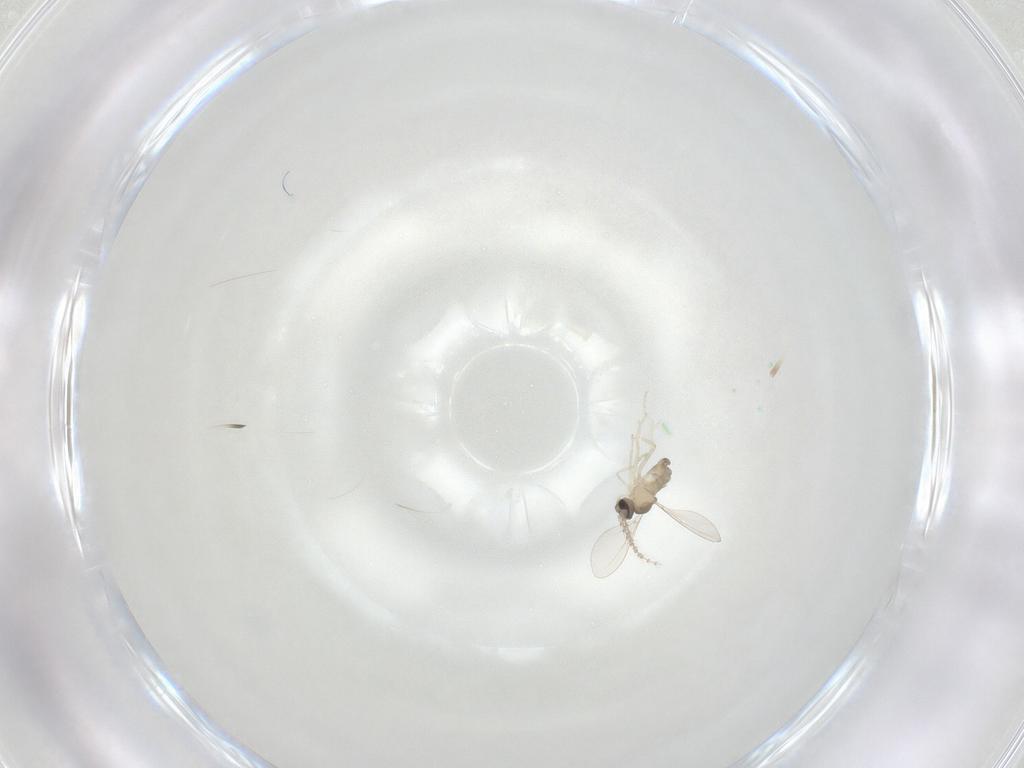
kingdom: Animalia
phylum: Arthropoda
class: Insecta
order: Diptera
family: Cecidomyiidae
